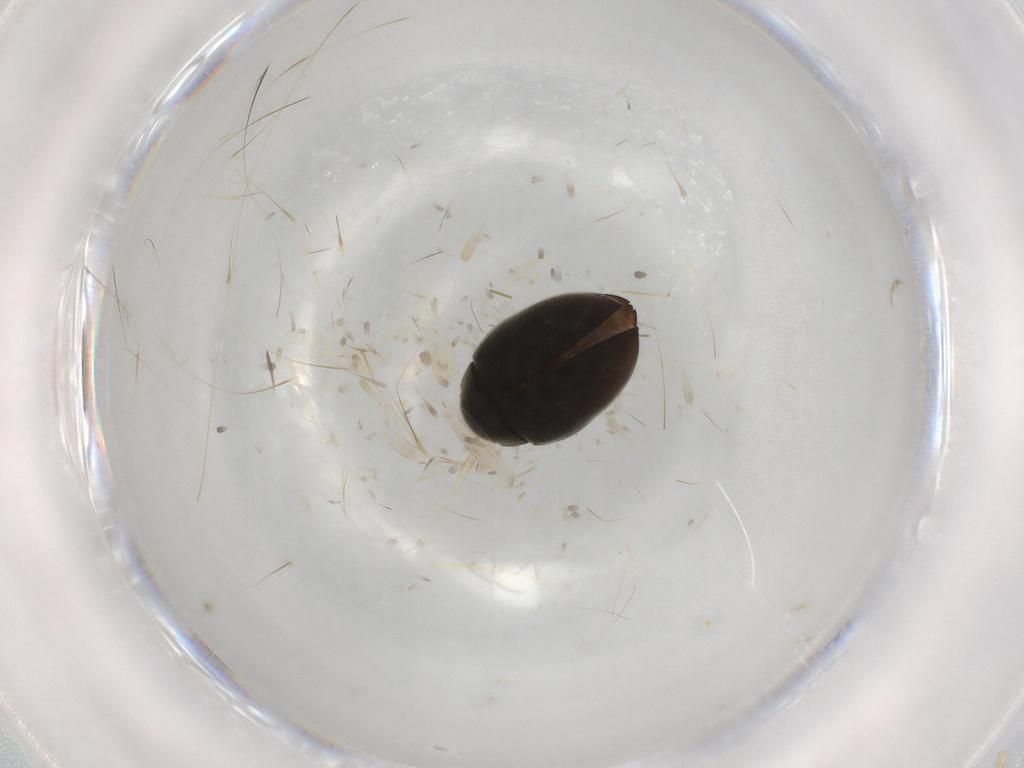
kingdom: Animalia
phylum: Arthropoda
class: Insecta
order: Coleoptera
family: Limnichidae
